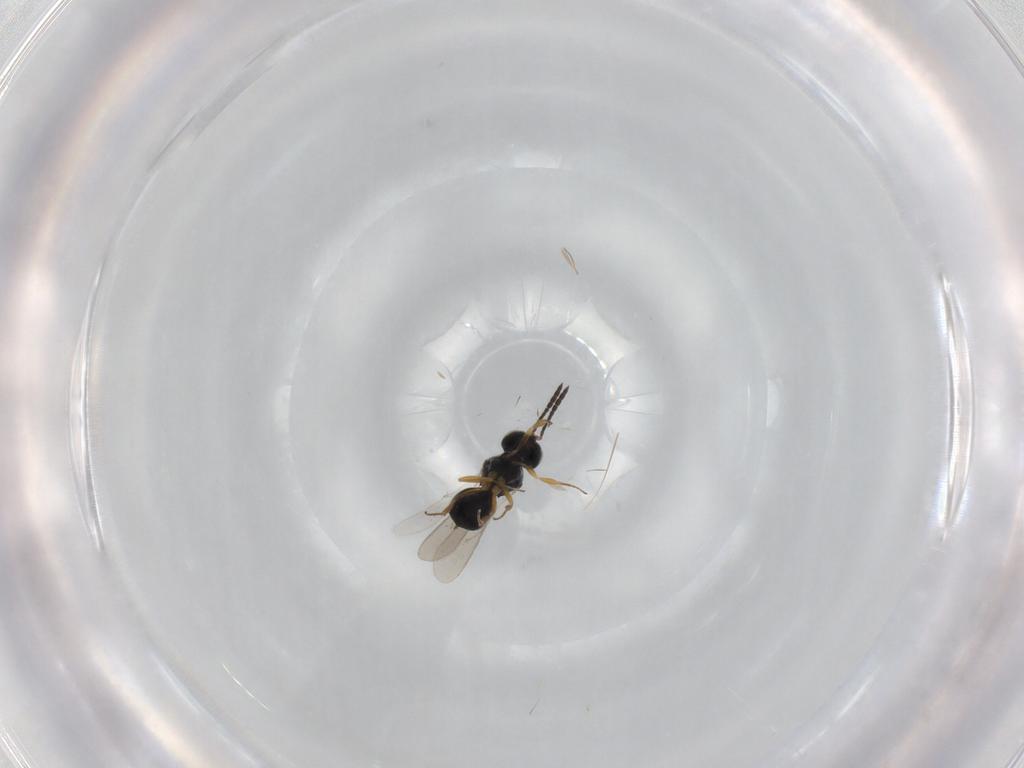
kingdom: Animalia
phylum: Arthropoda
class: Insecta
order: Hymenoptera
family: Scelionidae
